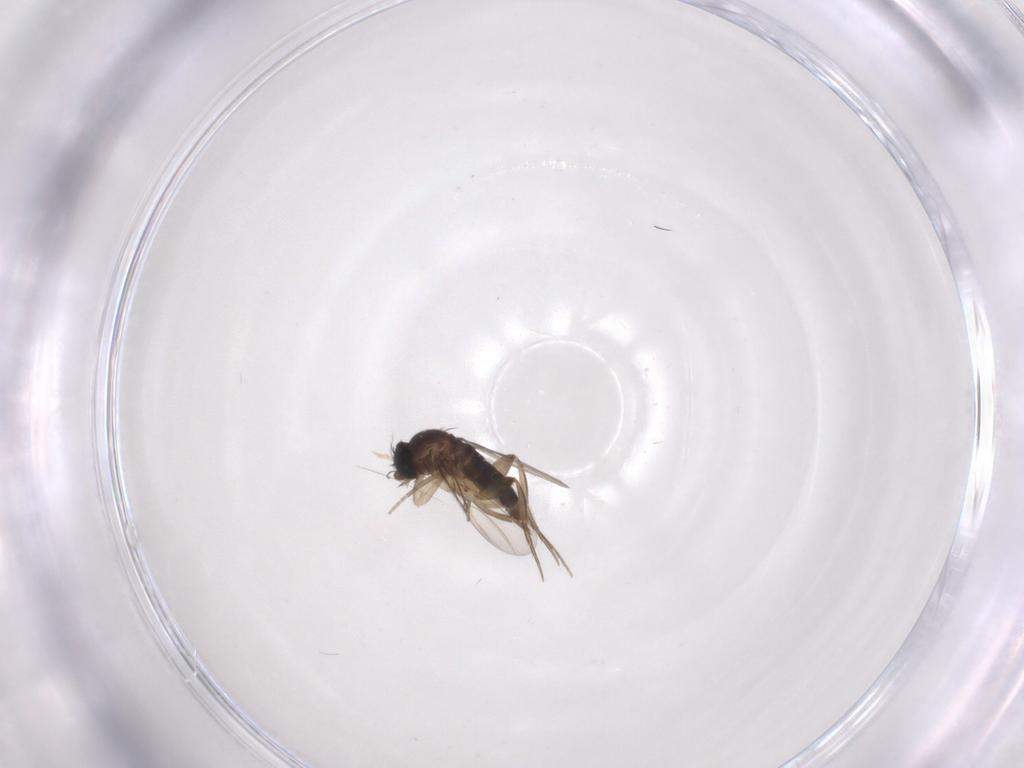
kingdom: Animalia
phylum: Arthropoda
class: Insecta
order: Diptera
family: Phoridae
